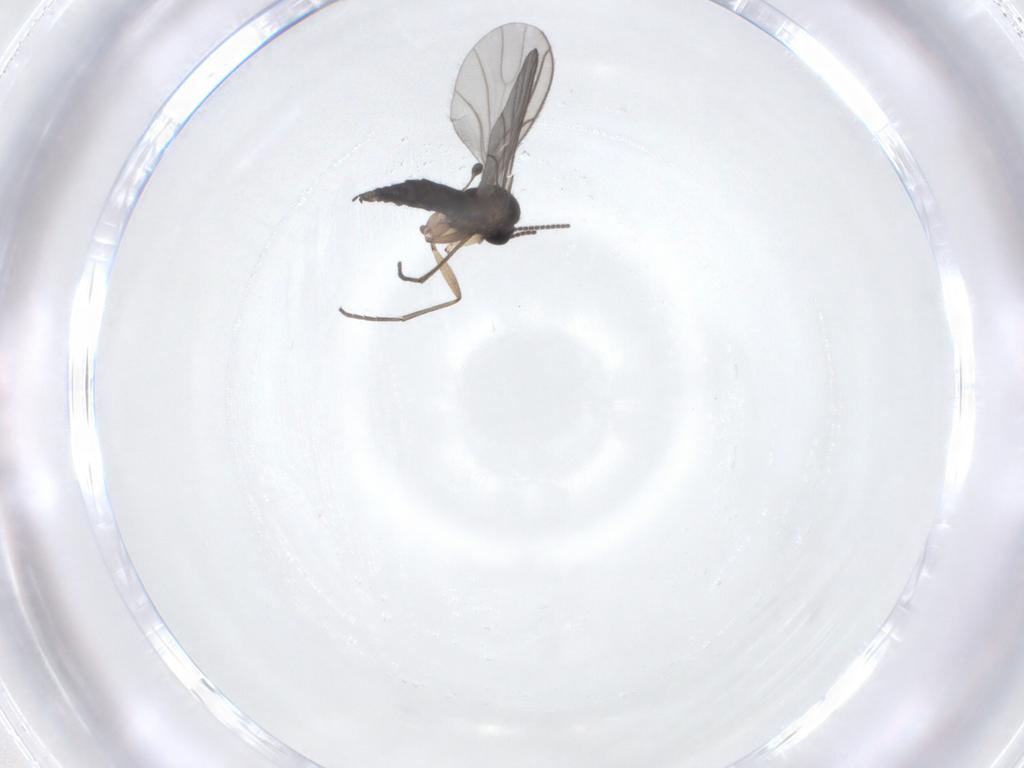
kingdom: Animalia
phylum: Arthropoda
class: Insecta
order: Diptera
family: Sciaridae
